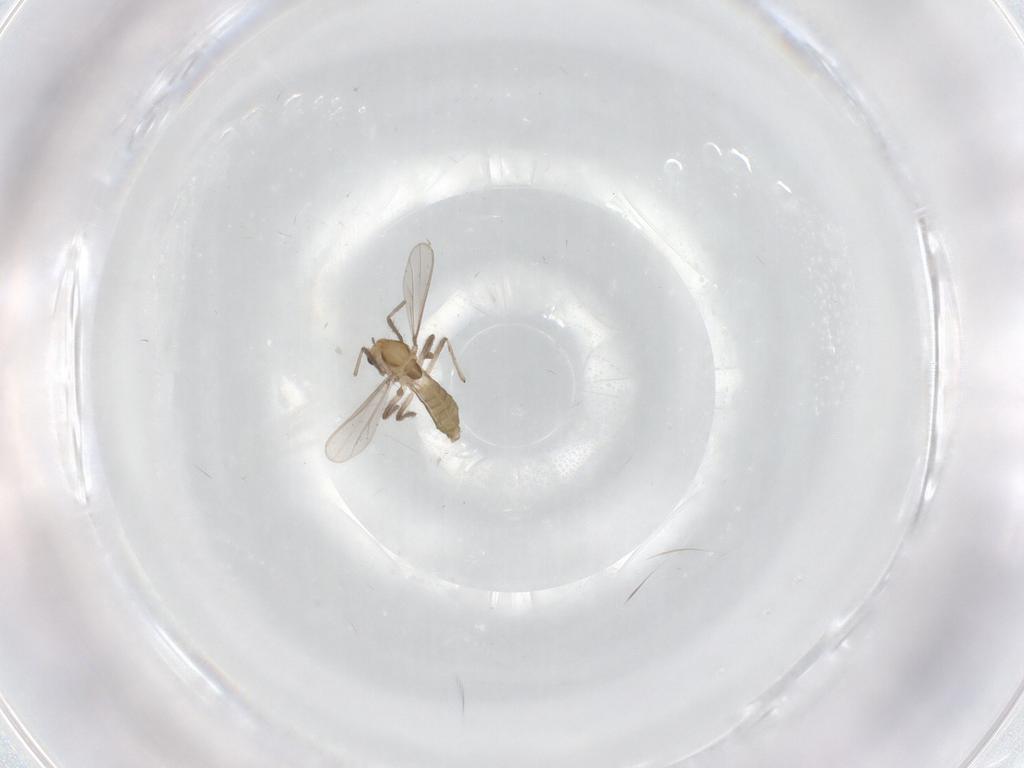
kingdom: Animalia
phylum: Arthropoda
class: Insecta
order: Diptera
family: Chironomidae
